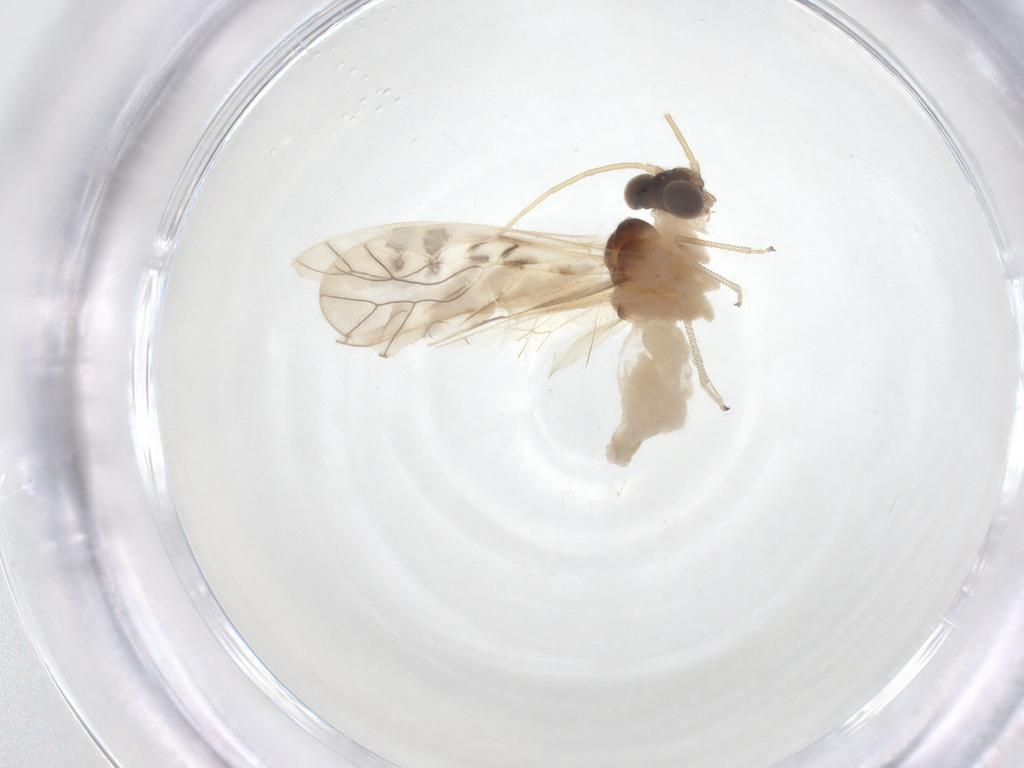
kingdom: Animalia
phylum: Arthropoda
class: Insecta
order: Psocodea
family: Caeciliusidae
